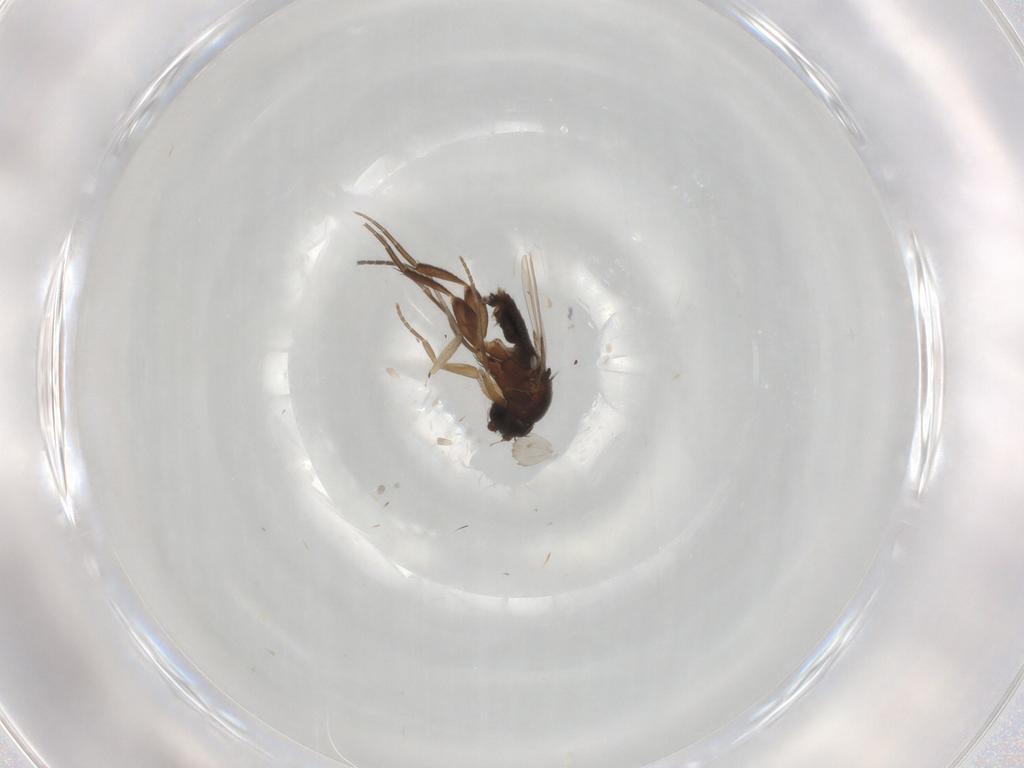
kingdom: Animalia
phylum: Arthropoda
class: Insecta
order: Diptera
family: Phoridae
